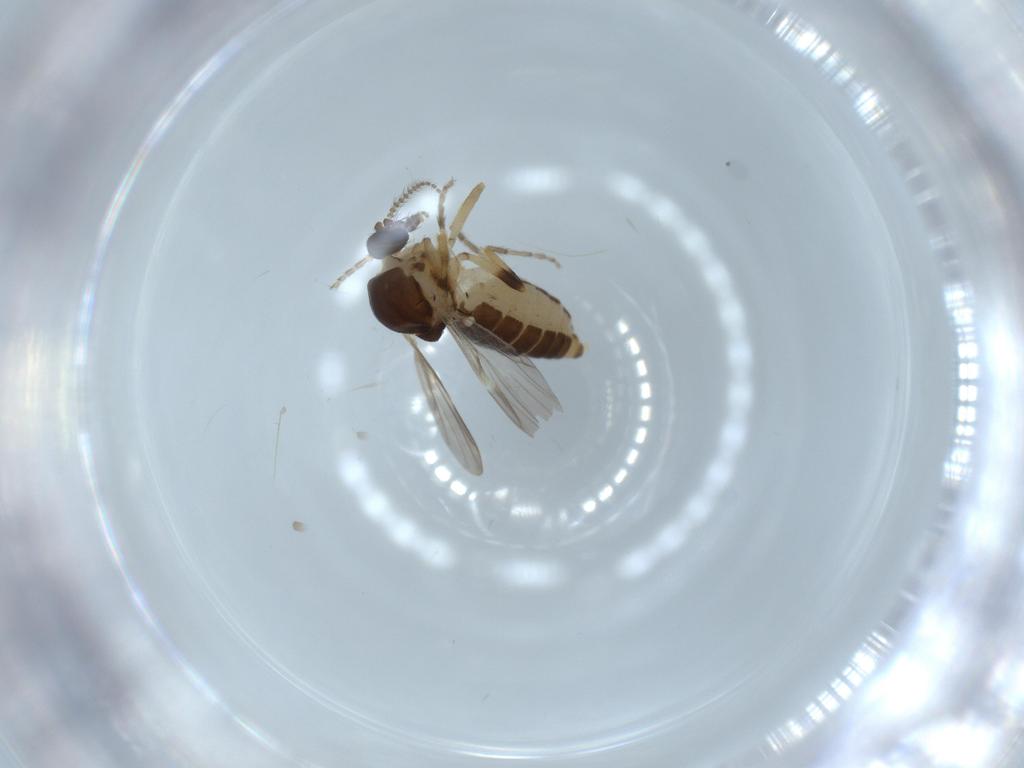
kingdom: Animalia
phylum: Arthropoda
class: Insecta
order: Diptera
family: Ceratopogonidae
